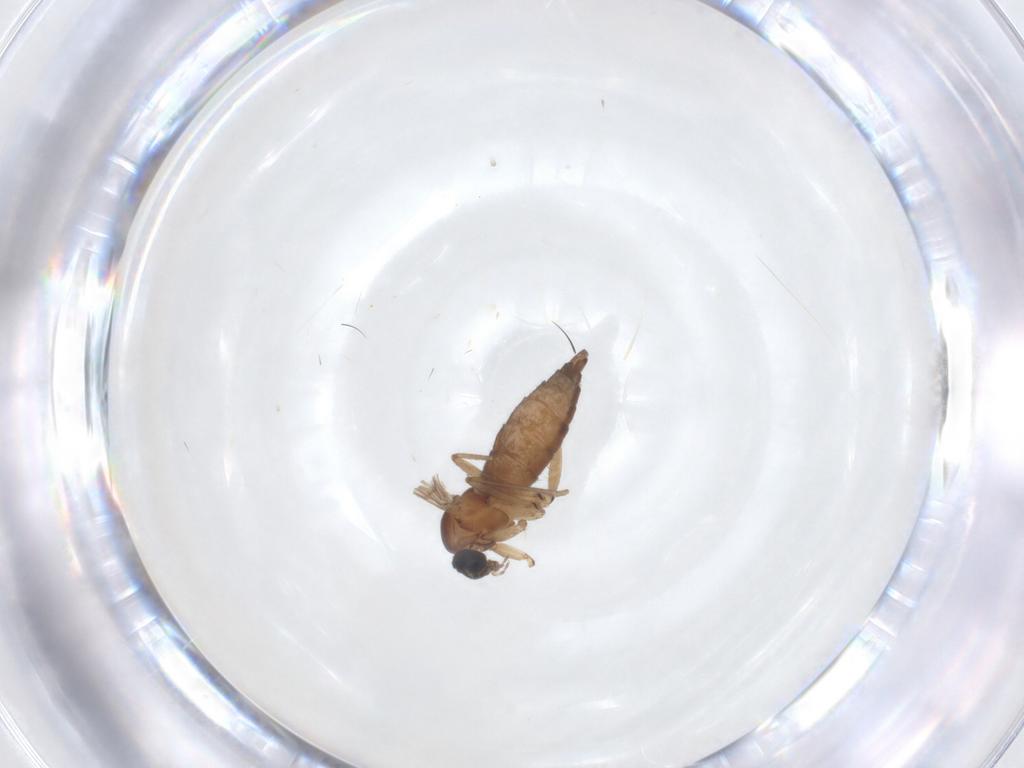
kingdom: Animalia
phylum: Arthropoda
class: Insecta
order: Diptera
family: Sciaridae
